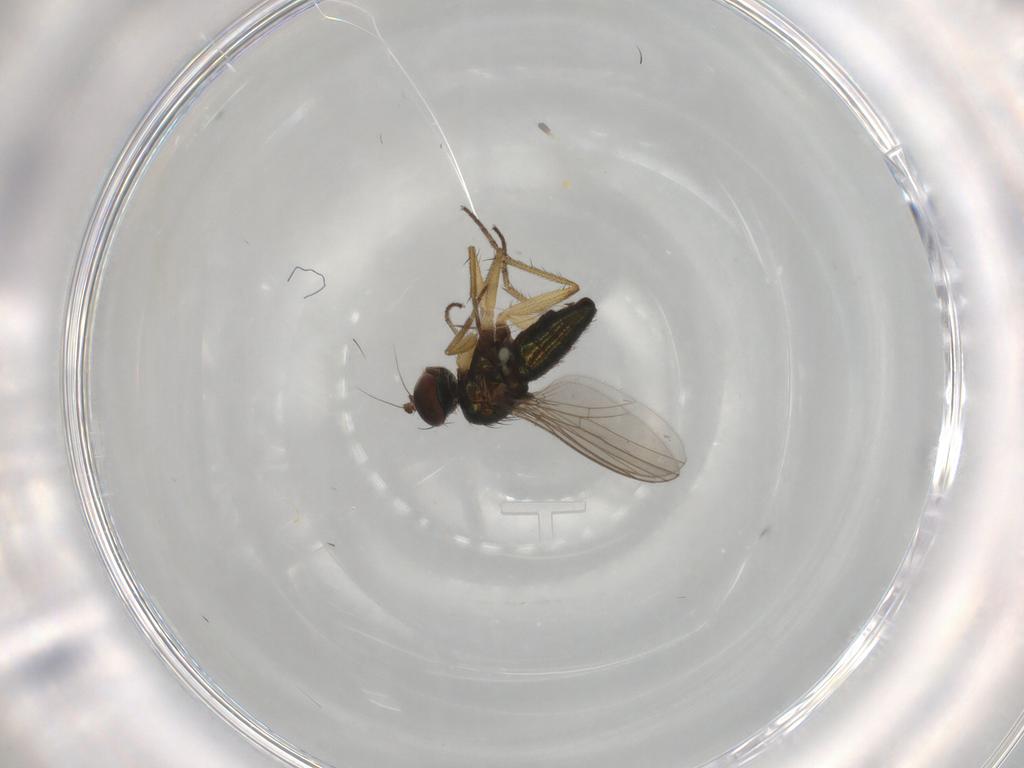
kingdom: Animalia
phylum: Arthropoda
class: Insecta
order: Diptera
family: Dolichopodidae
